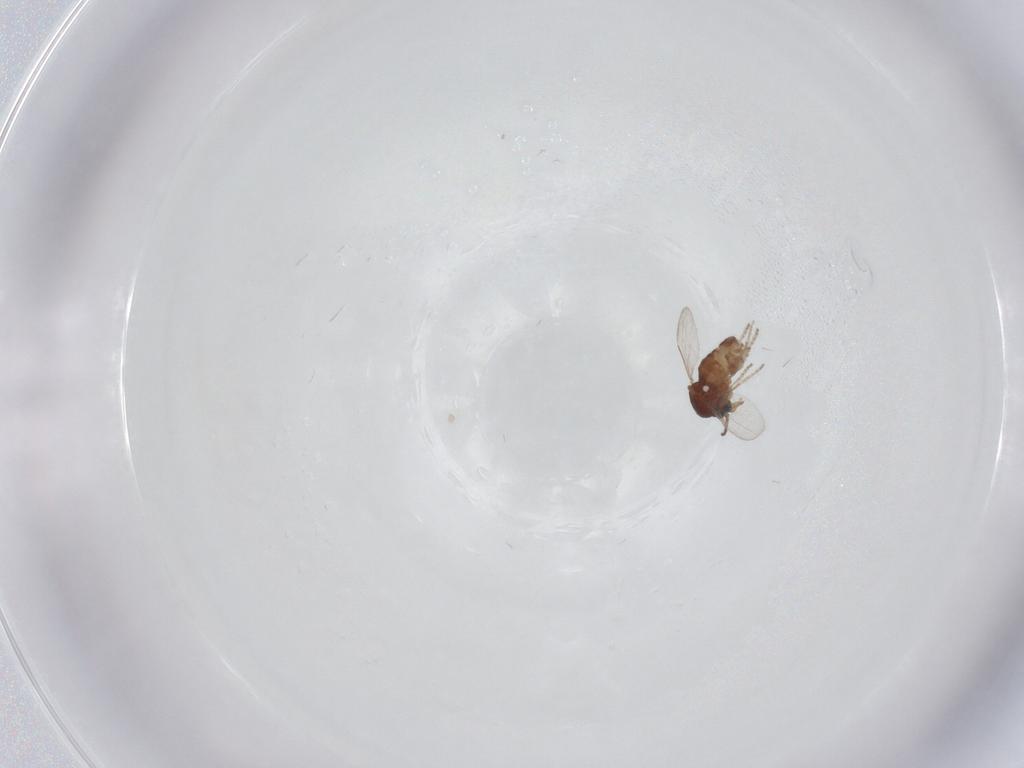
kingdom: Animalia
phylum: Arthropoda
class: Insecta
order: Diptera
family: Ceratopogonidae
